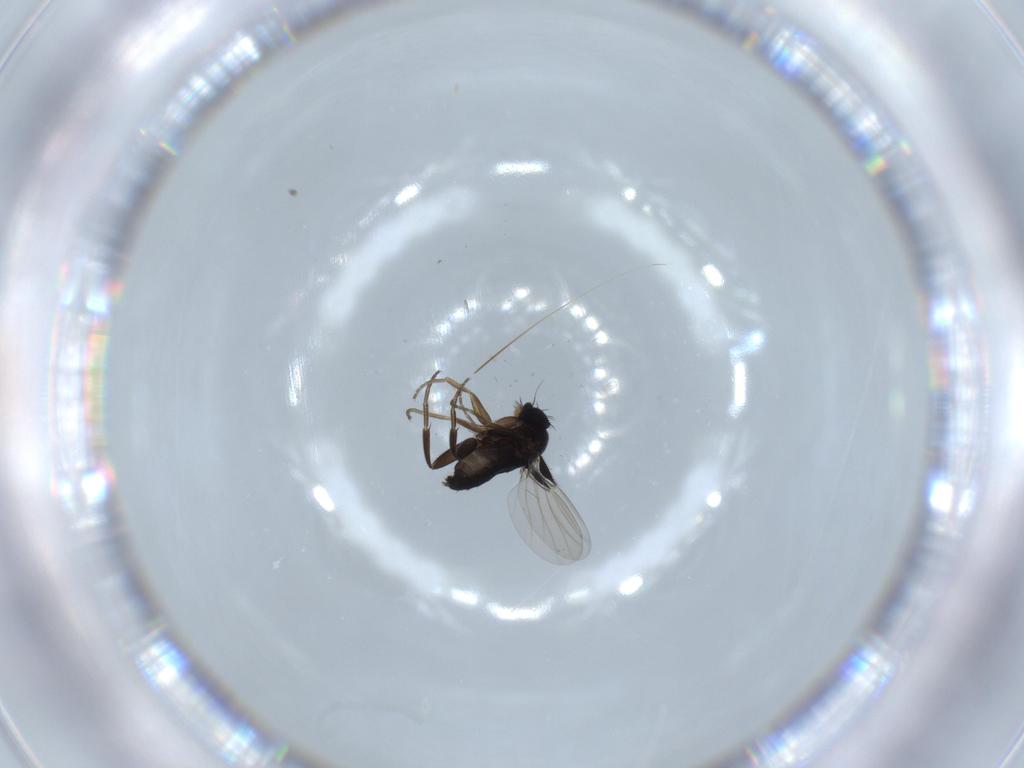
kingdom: Animalia
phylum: Arthropoda
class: Insecta
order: Diptera
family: Phoridae
